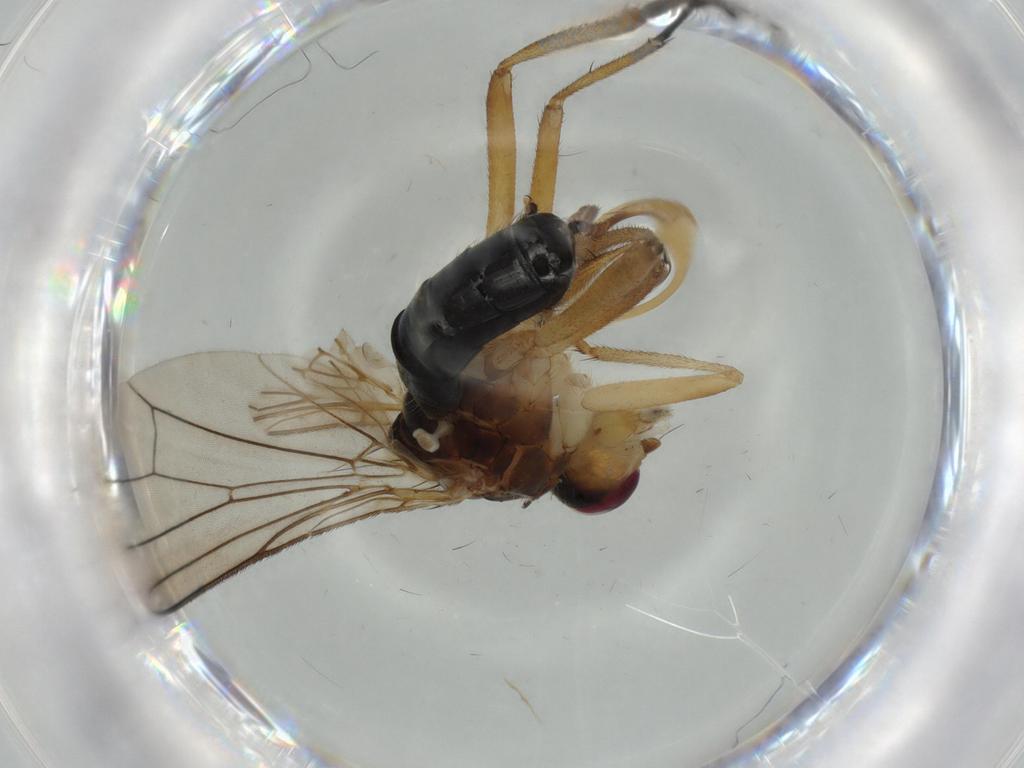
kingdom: Animalia
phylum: Arthropoda
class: Insecta
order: Diptera
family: Scathophagidae
